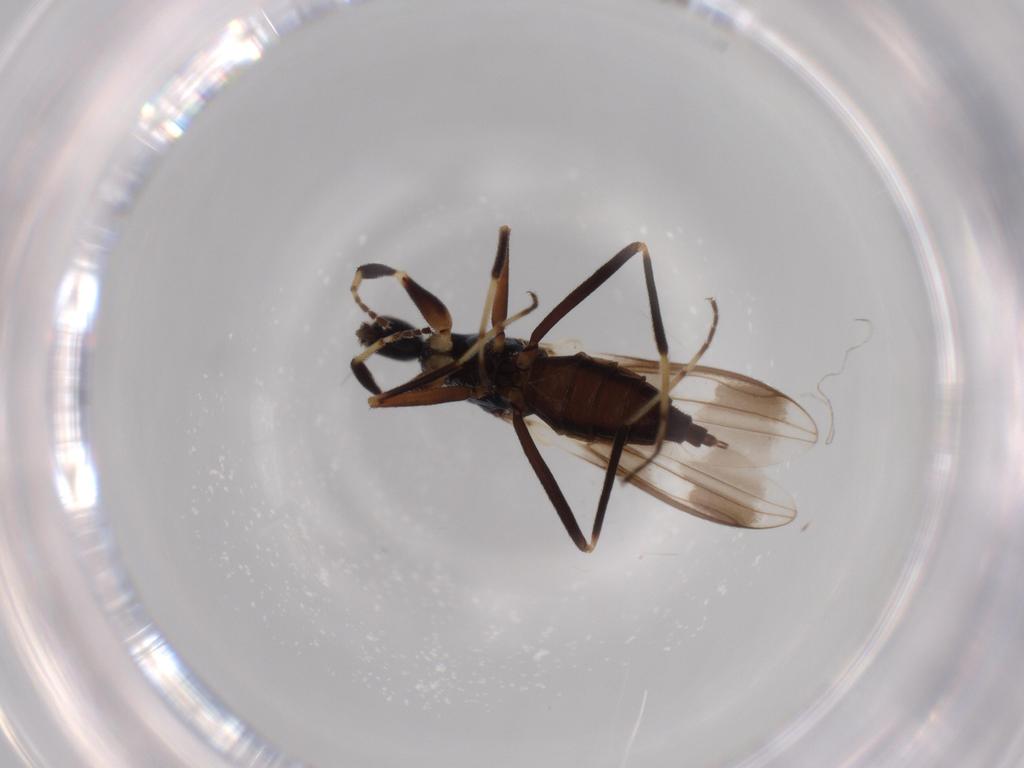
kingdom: Animalia
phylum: Arthropoda
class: Insecta
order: Diptera
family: Hybotidae
